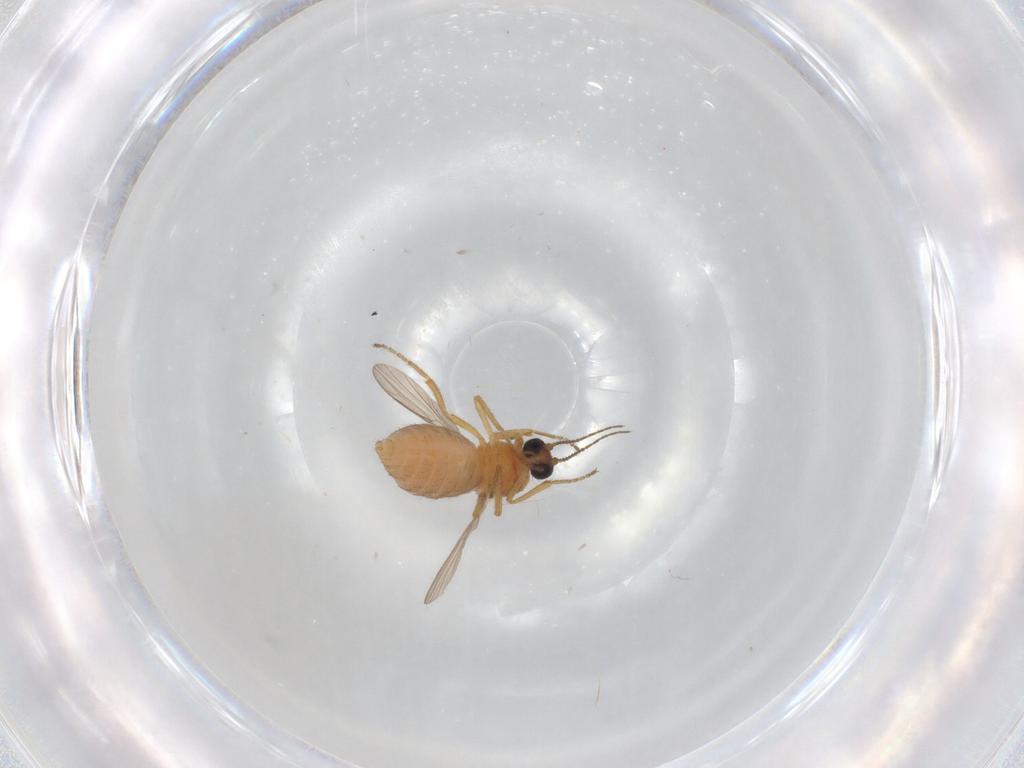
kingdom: Animalia
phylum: Arthropoda
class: Insecta
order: Diptera
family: Ceratopogonidae
